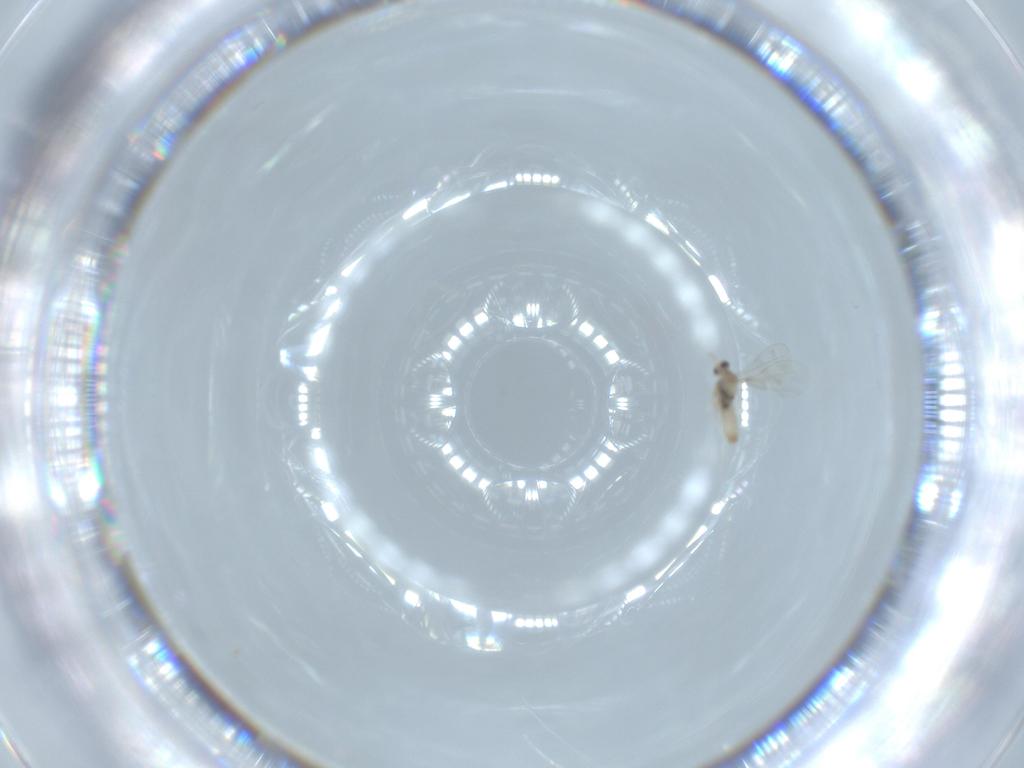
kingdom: Animalia
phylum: Arthropoda
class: Insecta
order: Diptera
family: Cecidomyiidae
